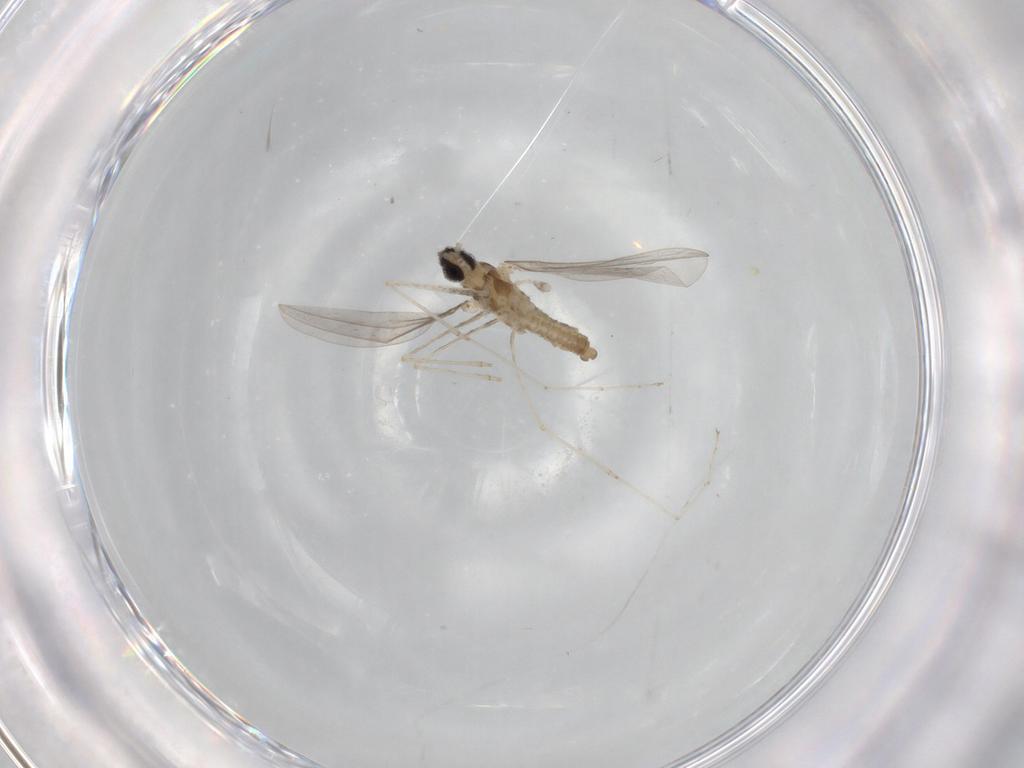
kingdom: Animalia
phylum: Arthropoda
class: Insecta
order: Diptera
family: Cecidomyiidae
